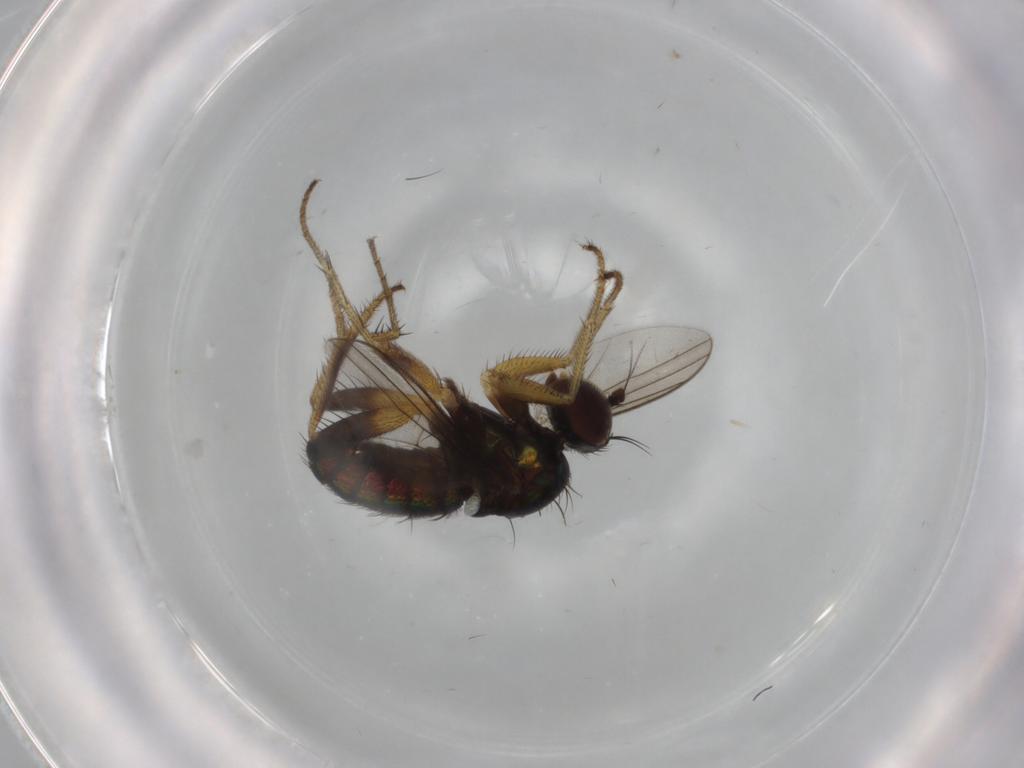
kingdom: Animalia
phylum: Arthropoda
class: Insecta
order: Diptera
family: Dolichopodidae
